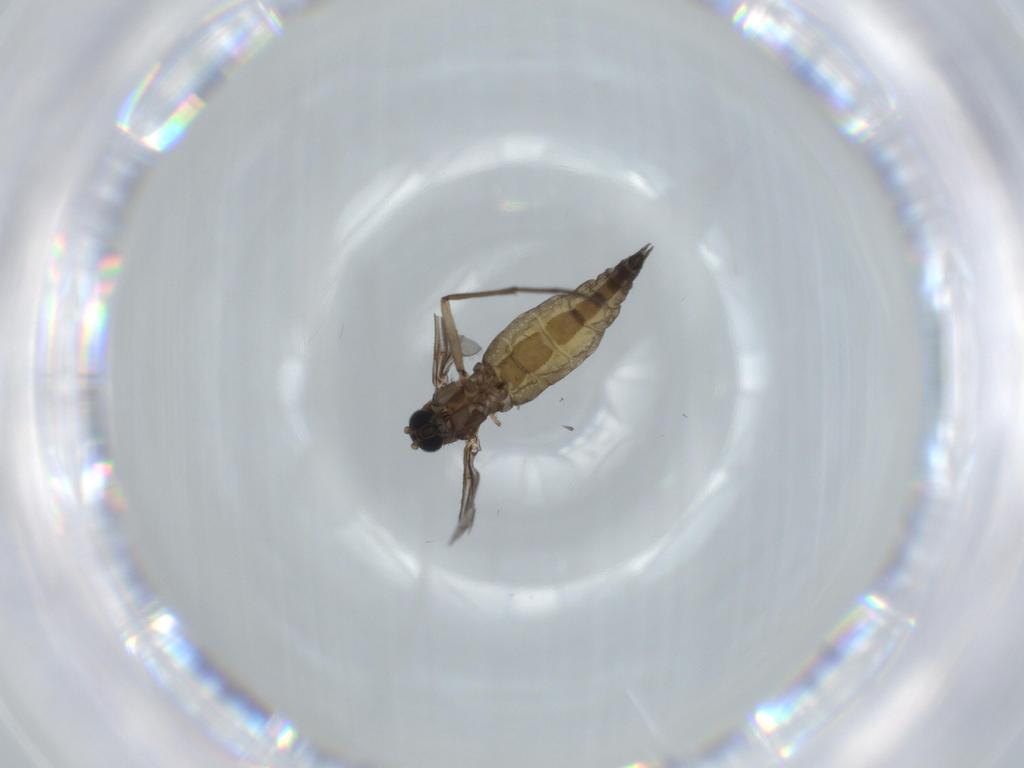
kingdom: Animalia
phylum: Arthropoda
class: Insecta
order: Diptera
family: Sciaridae
